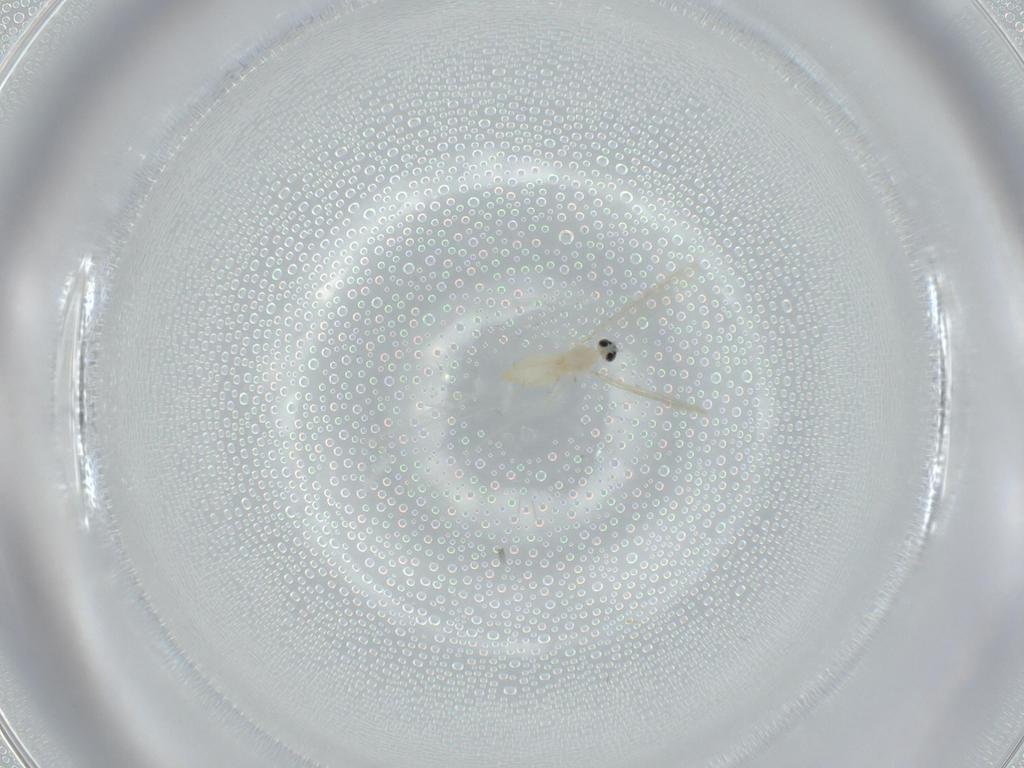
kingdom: Animalia
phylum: Arthropoda
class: Insecta
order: Diptera
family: Cecidomyiidae
